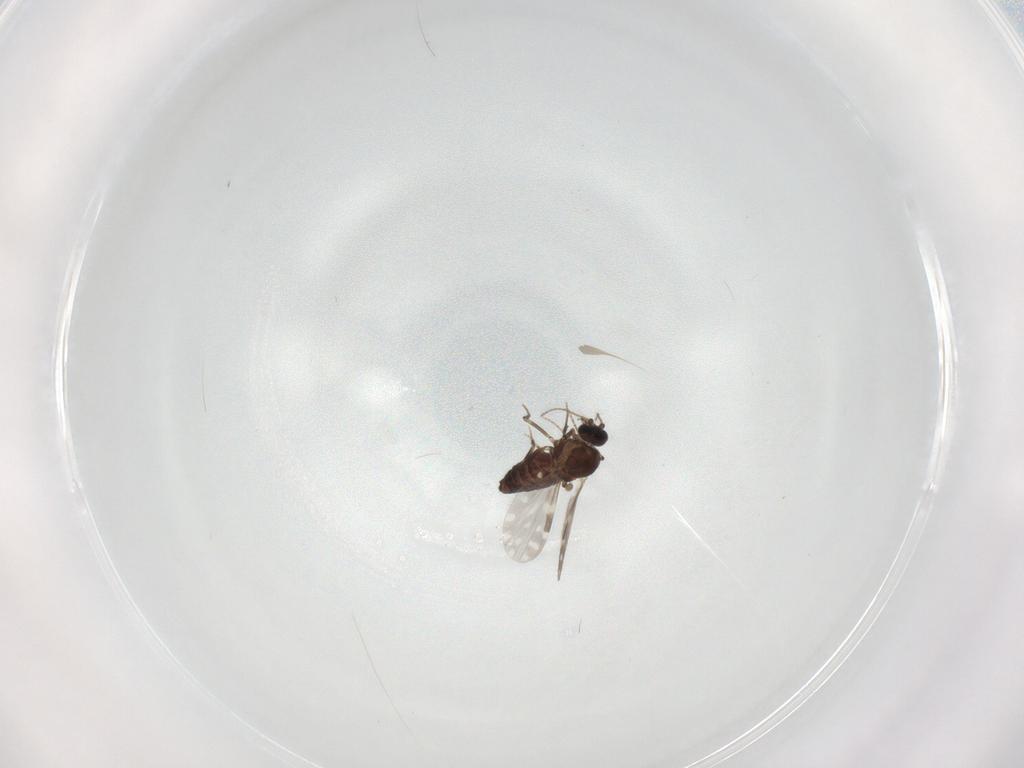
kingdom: Animalia
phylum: Arthropoda
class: Insecta
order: Diptera
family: Ceratopogonidae
